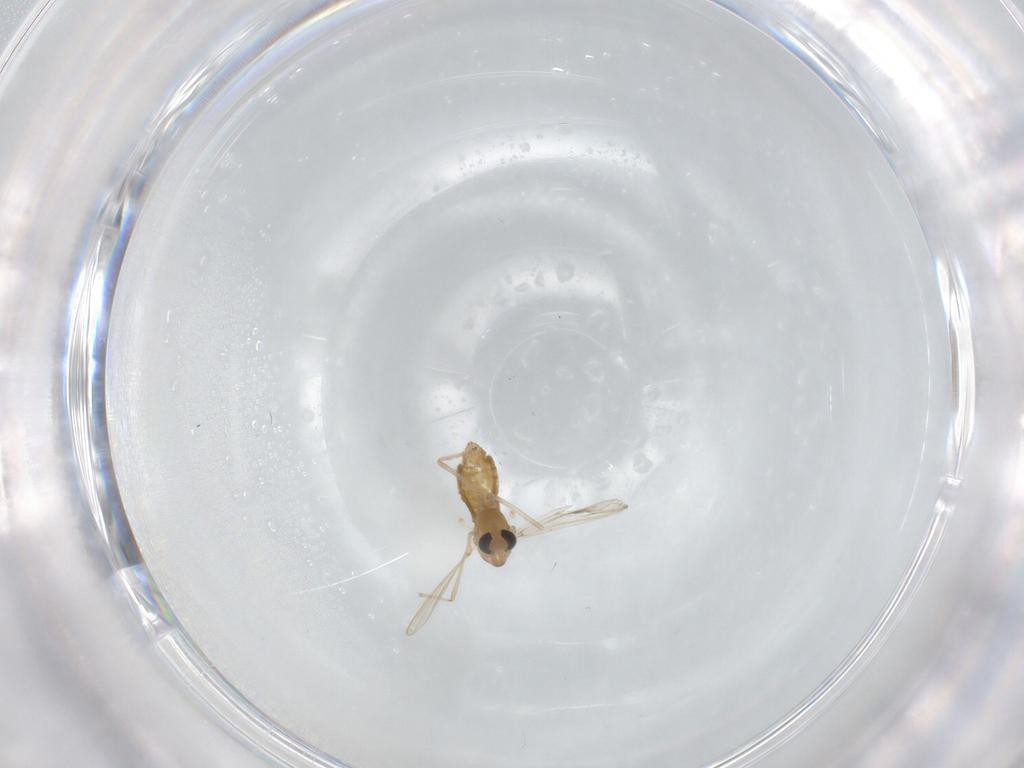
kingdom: Animalia
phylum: Arthropoda
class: Insecta
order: Diptera
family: Chironomidae
